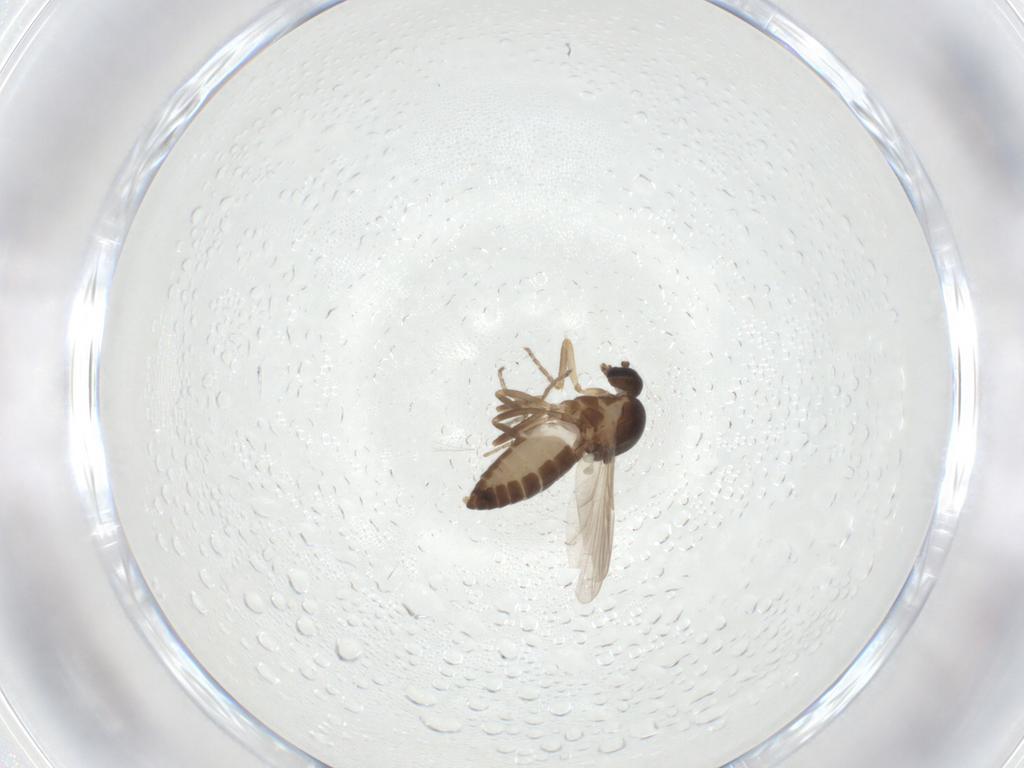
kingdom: Animalia
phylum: Arthropoda
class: Insecta
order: Diptera
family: Ceratopogonidae
